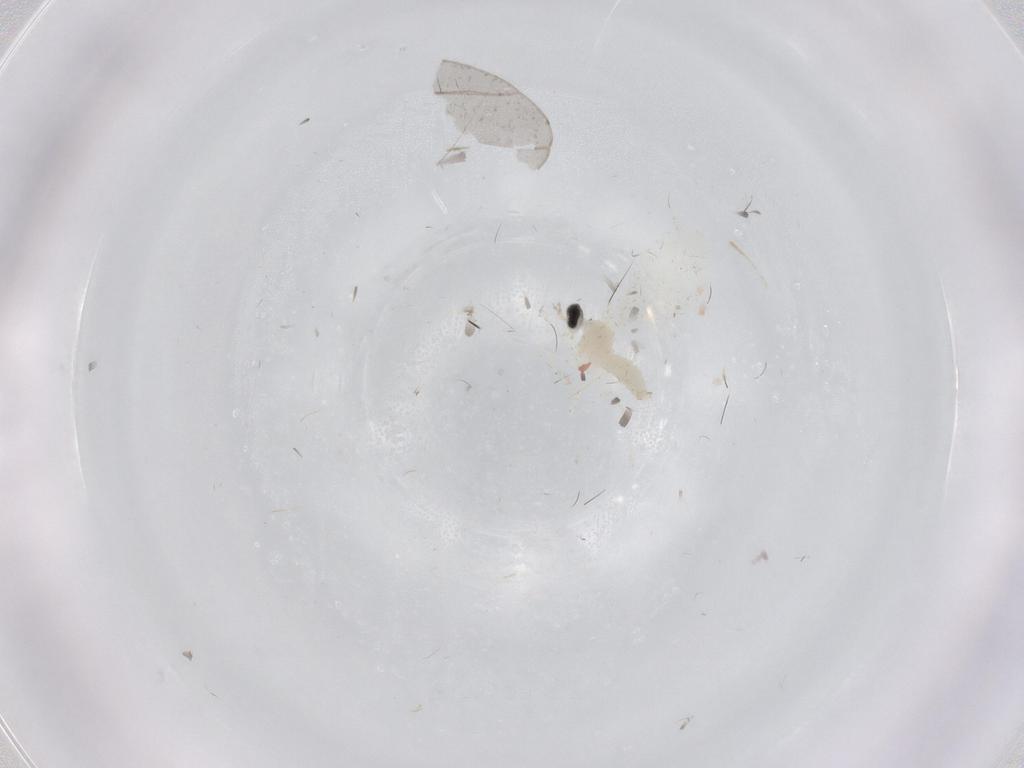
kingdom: Animalia
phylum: Arthropoda
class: Insecta
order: Diptera
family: Cecidomyiidae
